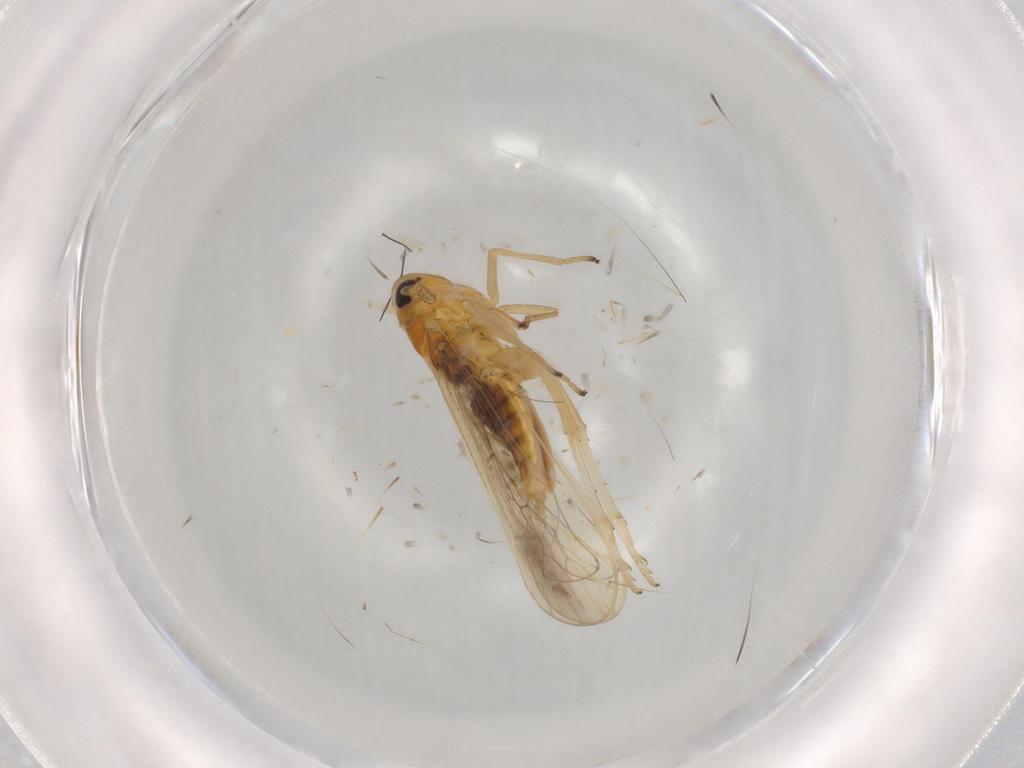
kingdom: Animalia
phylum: Arthropoda
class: Insecta
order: Hemiptera
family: Delphacidae
